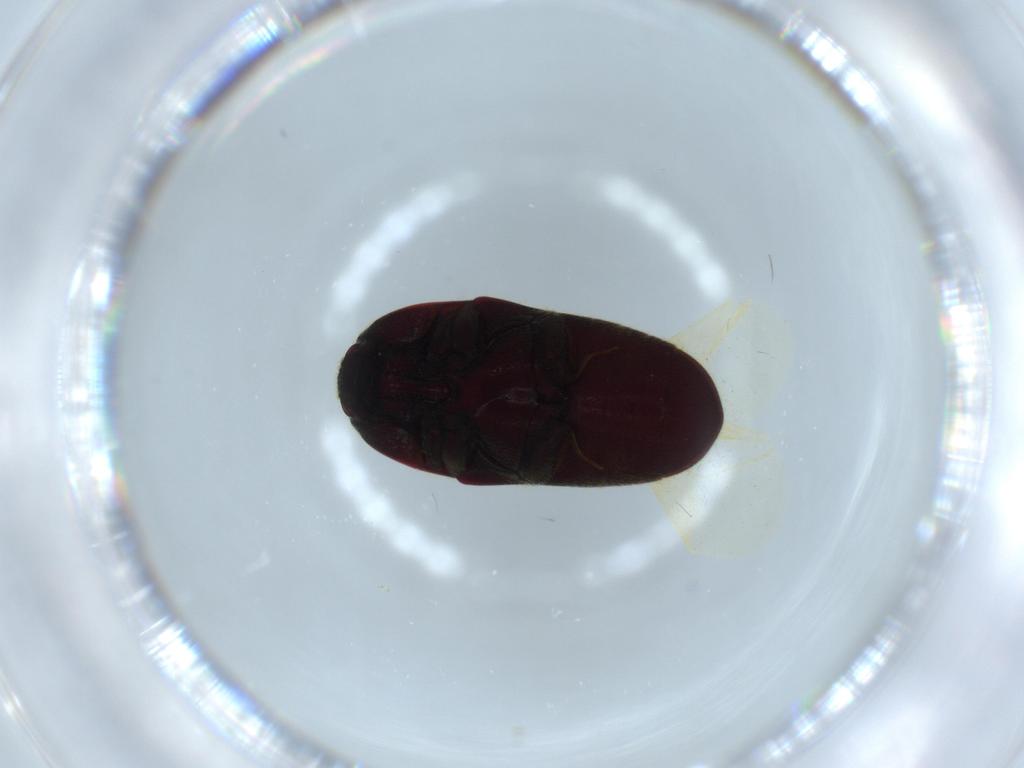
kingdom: Animalia
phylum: Arthropoda
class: Insecta
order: Coleoptera
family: Throscidae
